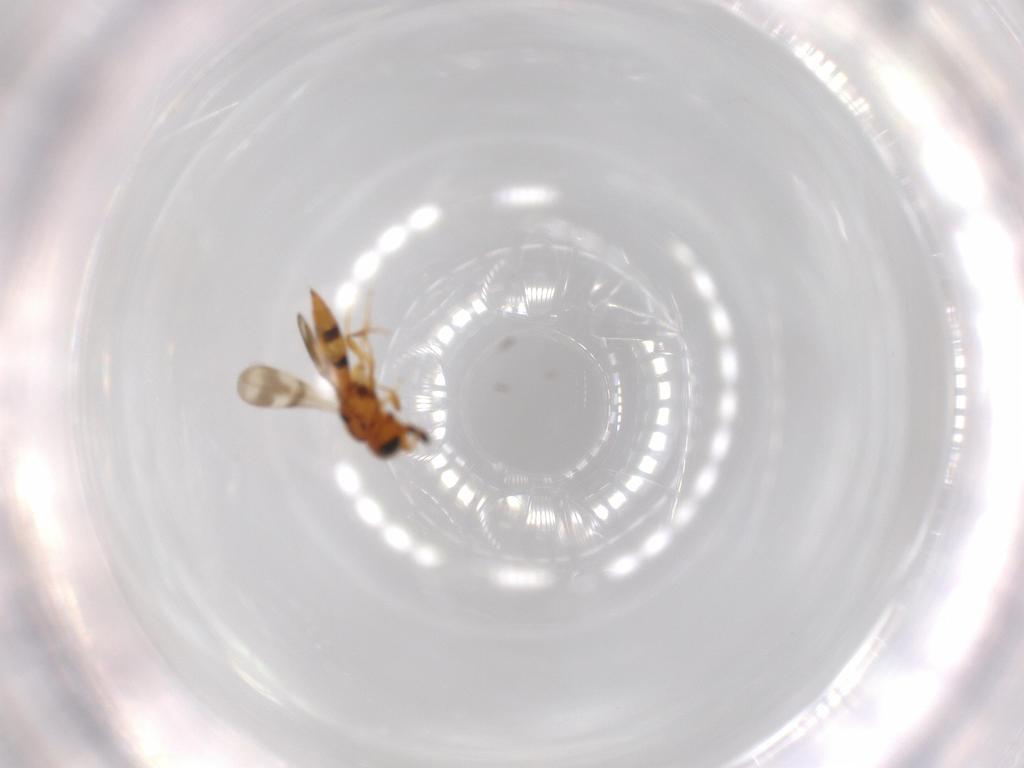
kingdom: Animalia
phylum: Arthropoda
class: Insecta
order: Hymenoptera
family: Scelionidae
